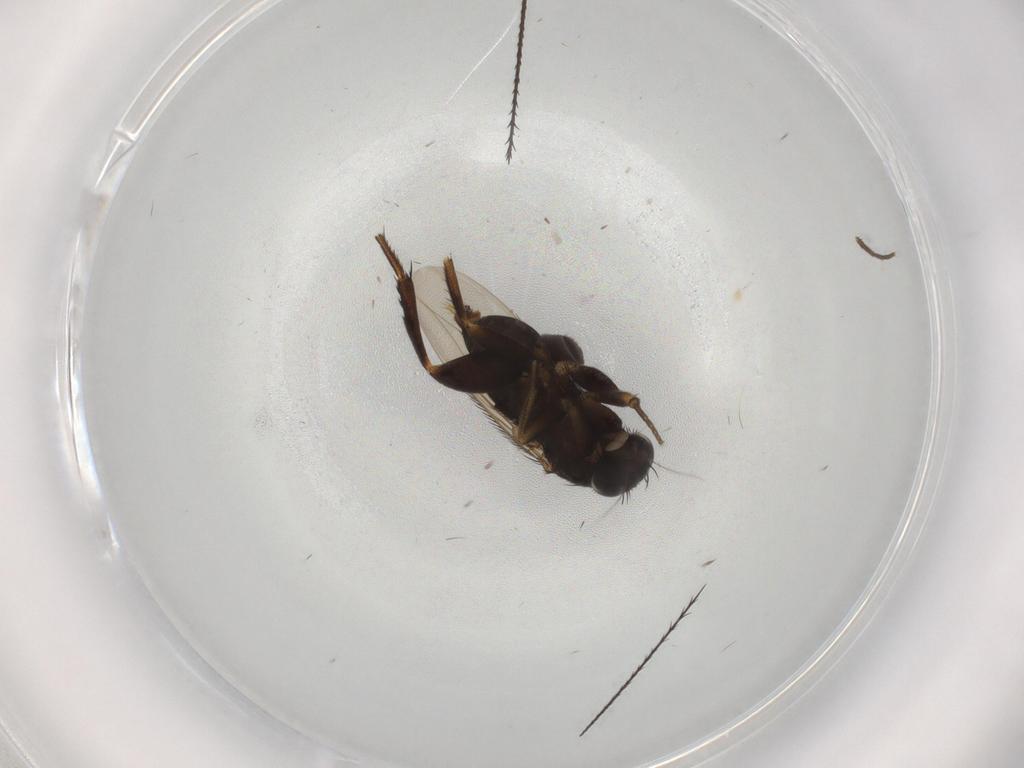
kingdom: Animalia
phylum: Arthropoda
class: Insecta
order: Diptera
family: Phoridae
